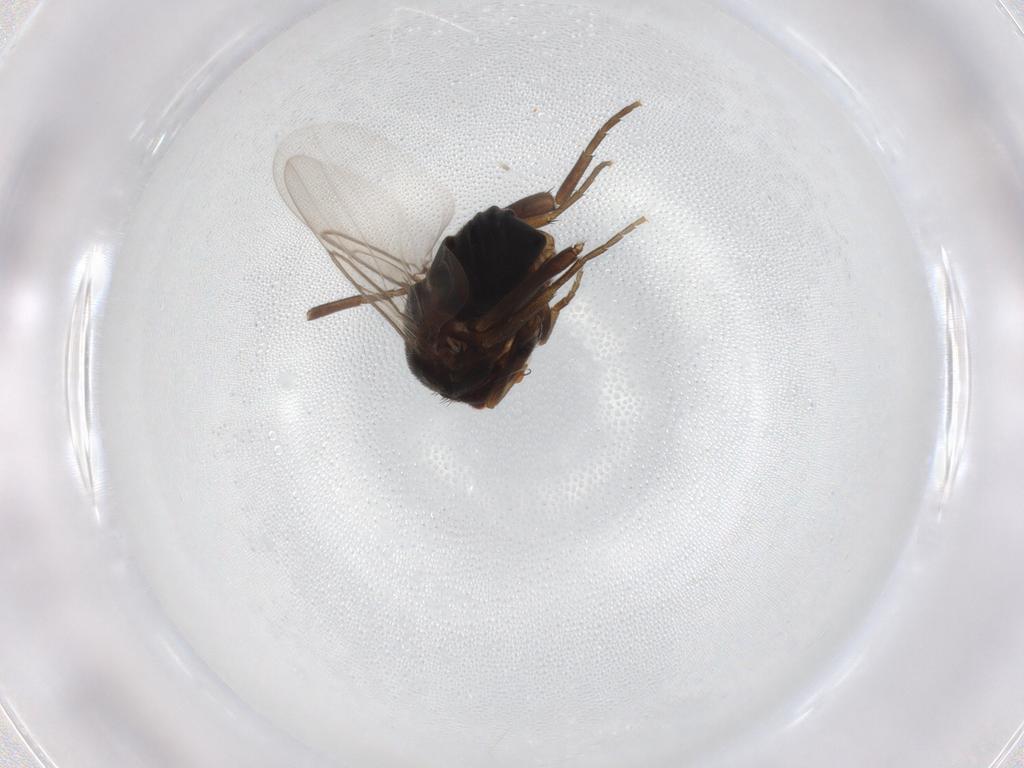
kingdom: Animalia
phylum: Arthropoda
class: Insecta
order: Diptera
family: Phoridae
